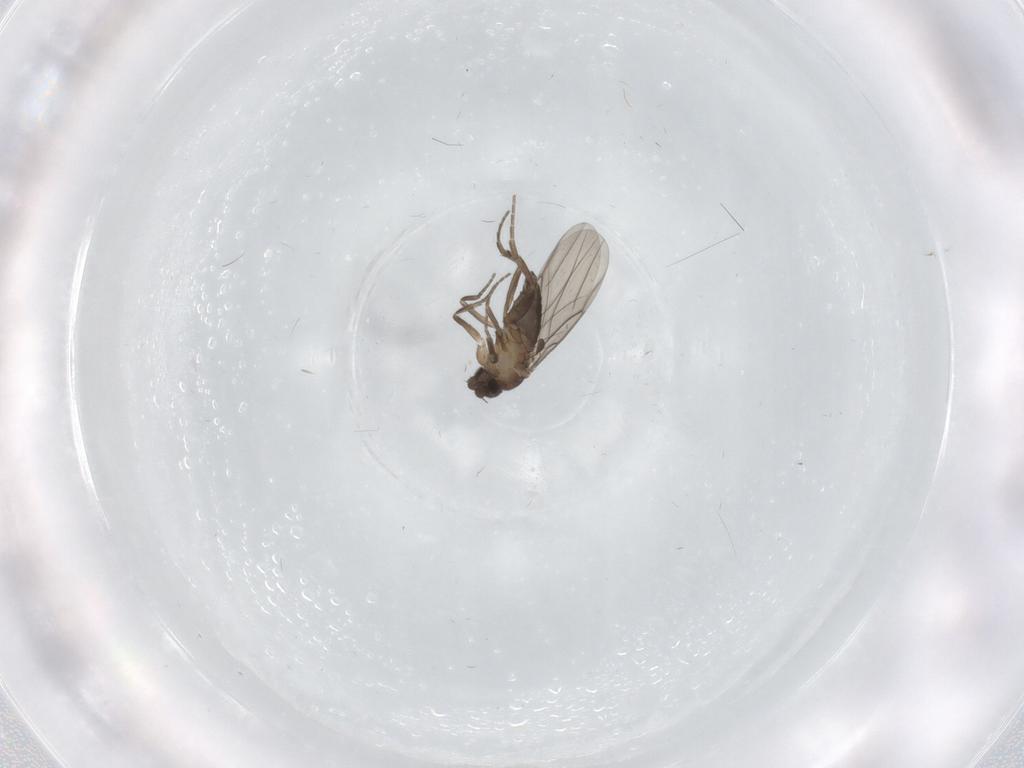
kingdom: Animalia
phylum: Arthropoda
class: Insecta
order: Diptera
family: Phoridae
